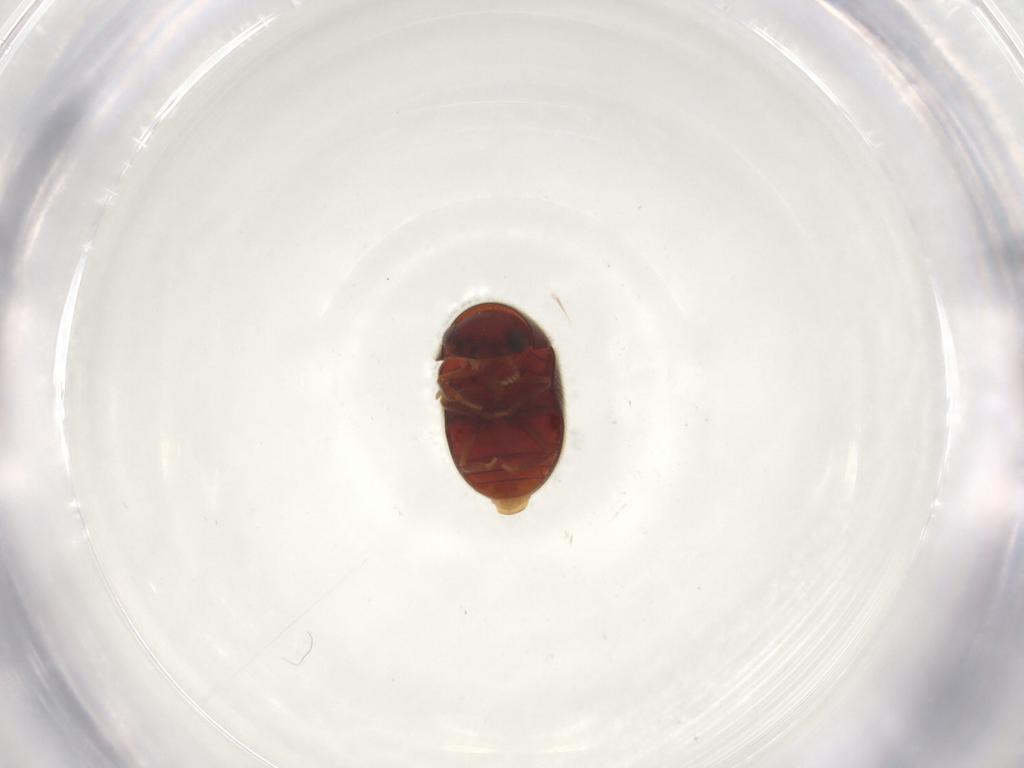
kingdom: Animalia
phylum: Arthropoda
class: Insecta
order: Coleoptera
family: Ptinidae
